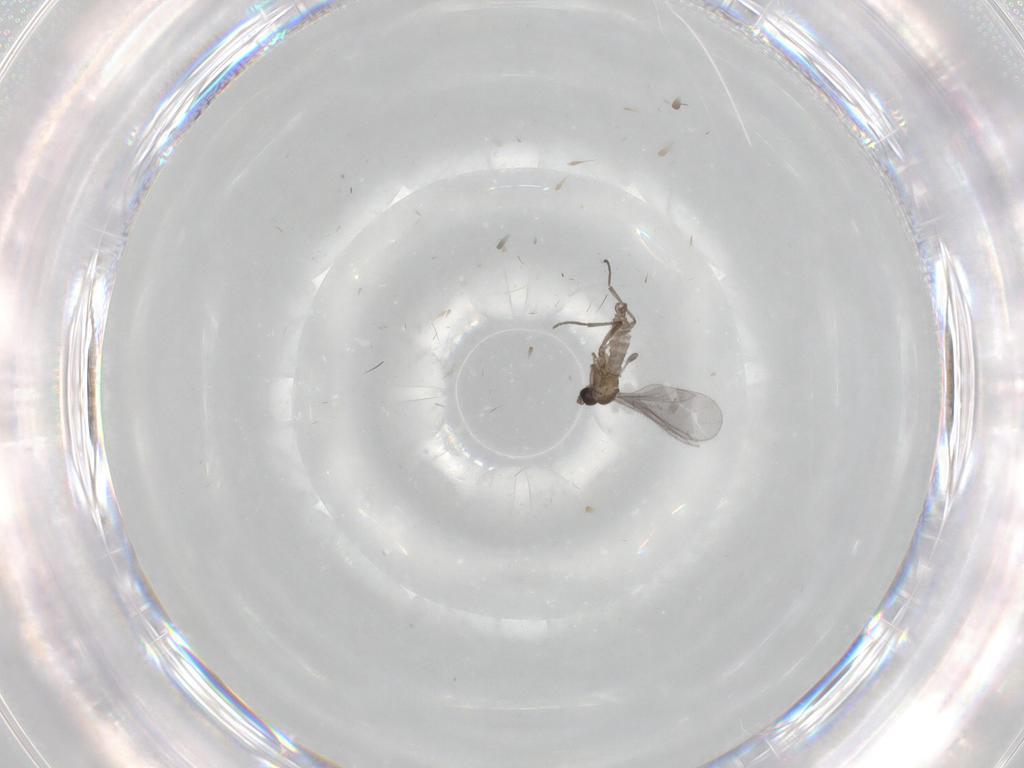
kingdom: Animalia
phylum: Arthropoda
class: Insecta
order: Diptera
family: Sciaridae
